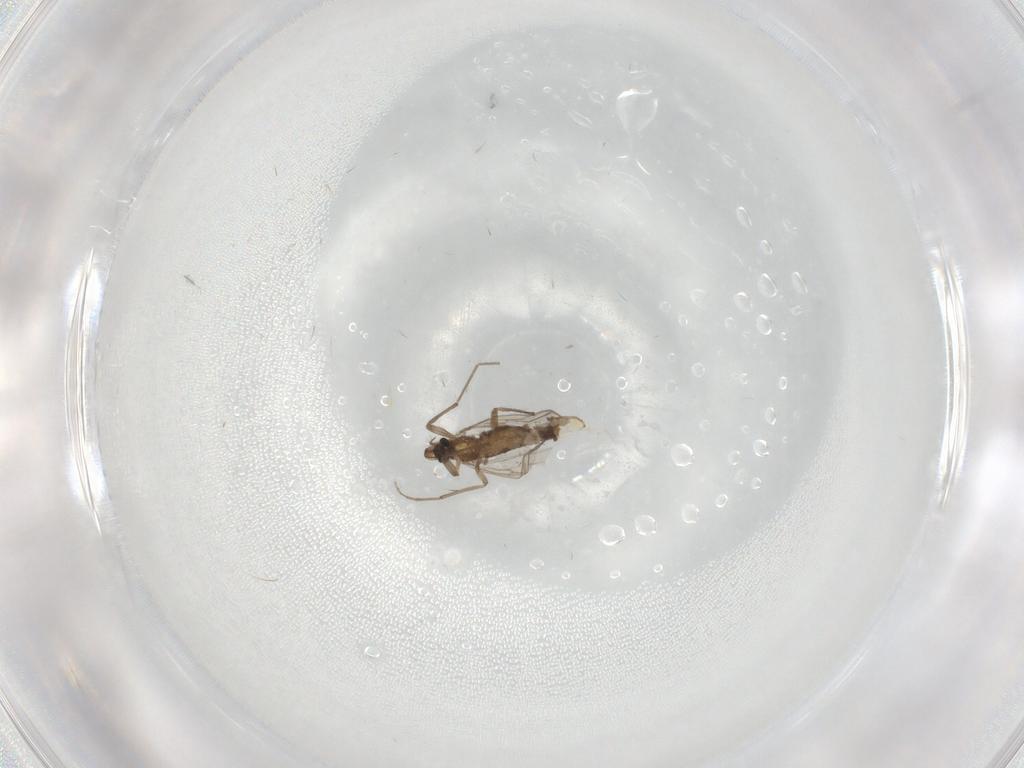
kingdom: Animalia
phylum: Arthropoda
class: Insecta
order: Diptera
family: Chironomidae
